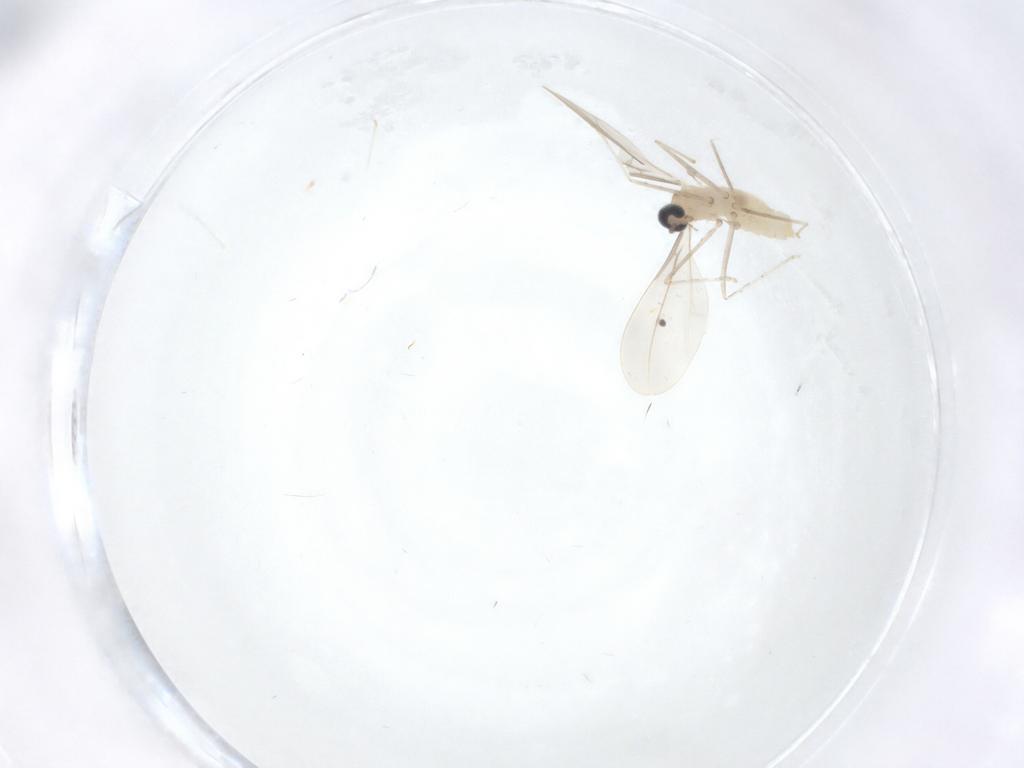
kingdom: Animalia
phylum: Arthropoda
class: Insecta
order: Diptera
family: Cecidomyiidae
